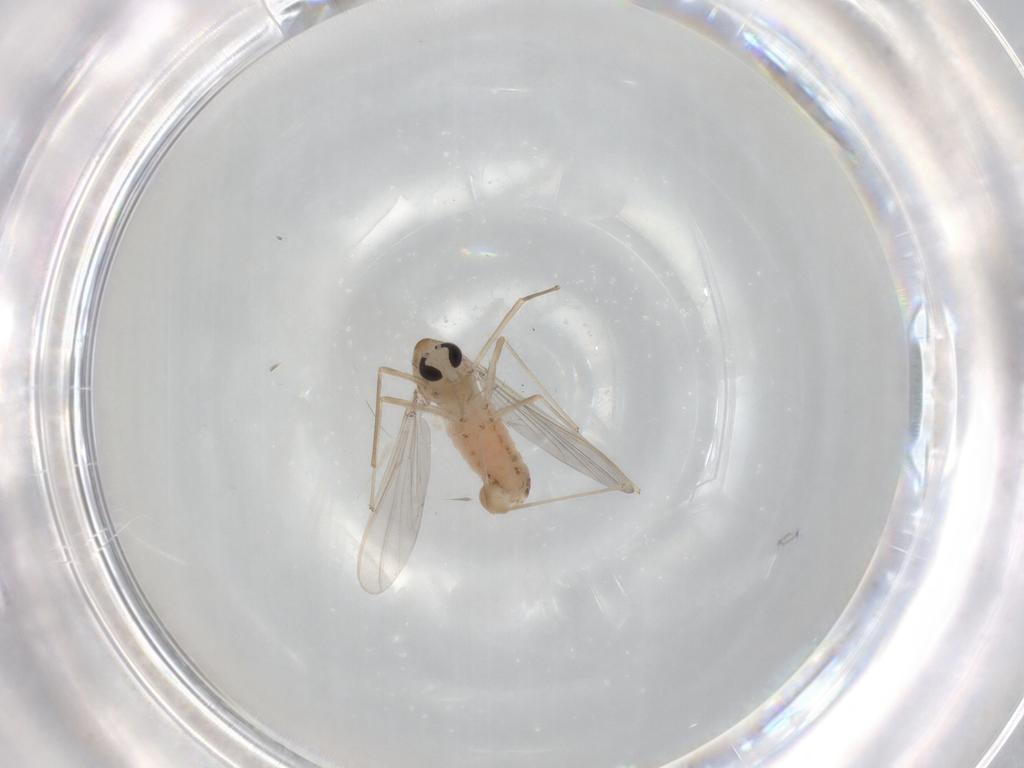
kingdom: Animalia
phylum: Arthropoda
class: Insecta
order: Diptera
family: Chironomidae
